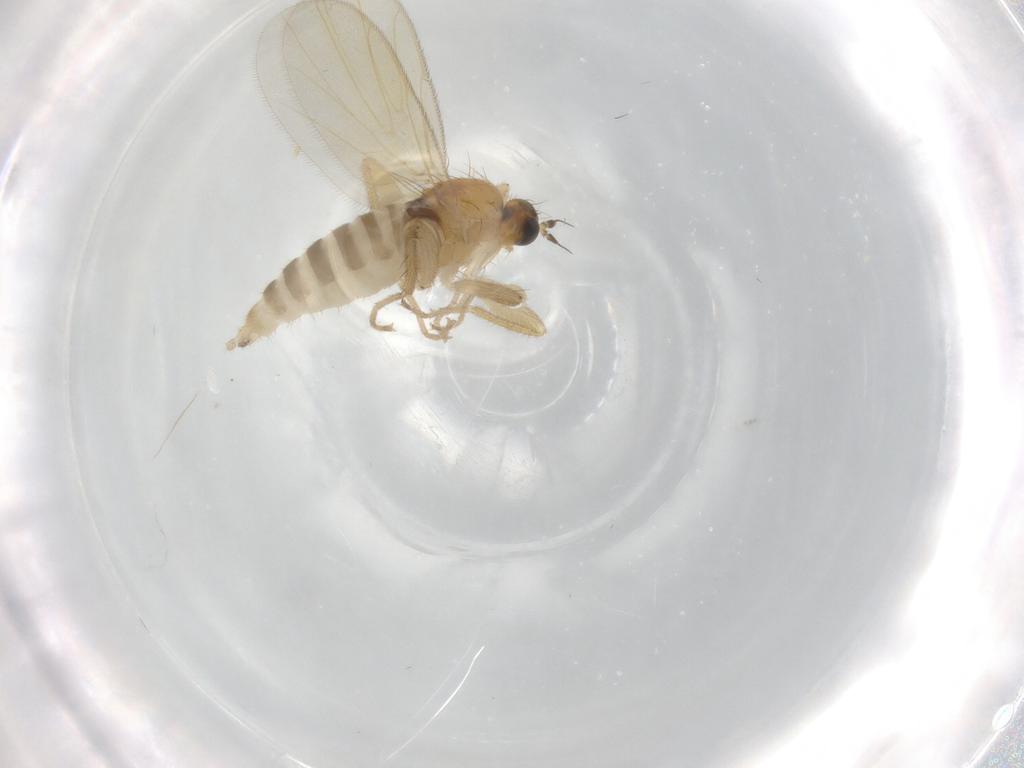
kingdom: Animalia
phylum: Arthropoda
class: Insecta
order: Diptera
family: Hybotidae
